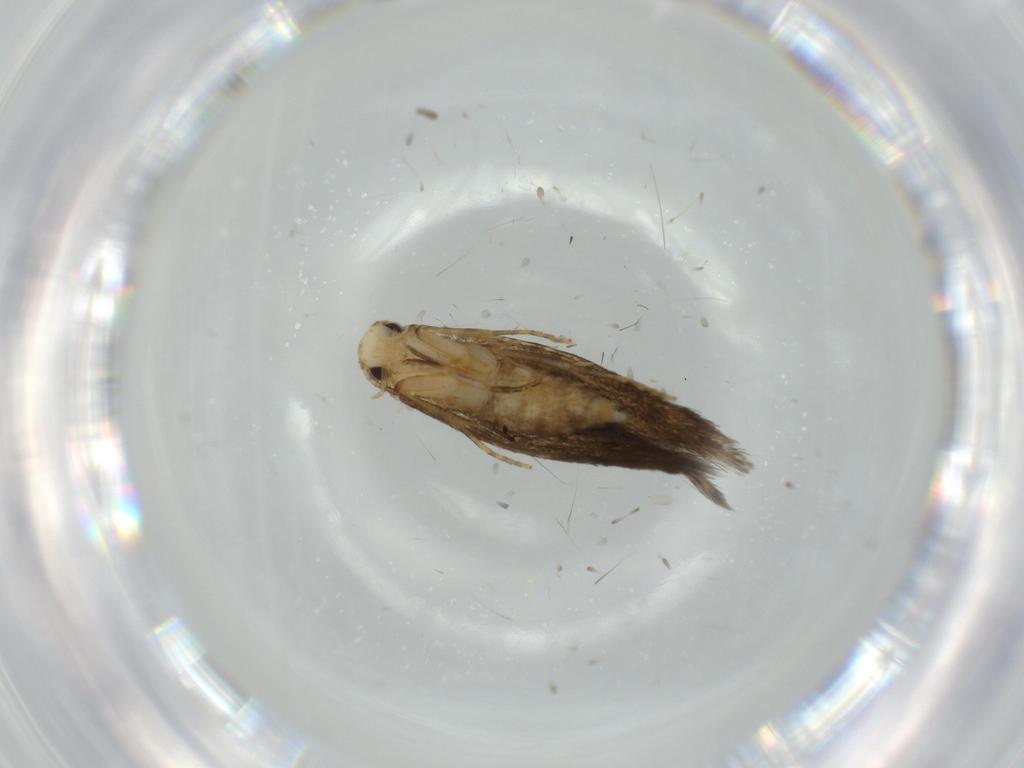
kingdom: Animalia
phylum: Arthropoda
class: Insecta
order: Lepidoptera
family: Tineidae
